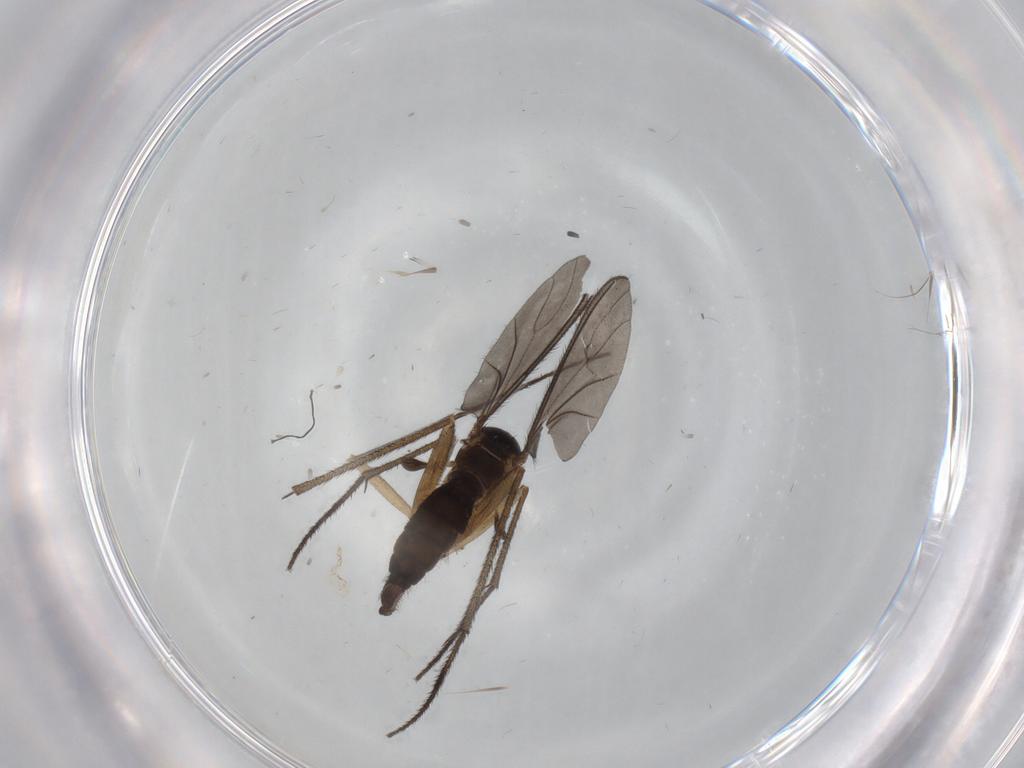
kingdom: Animalia
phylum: Arthropoda
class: Insecta
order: Diptera
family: Sciaridae
